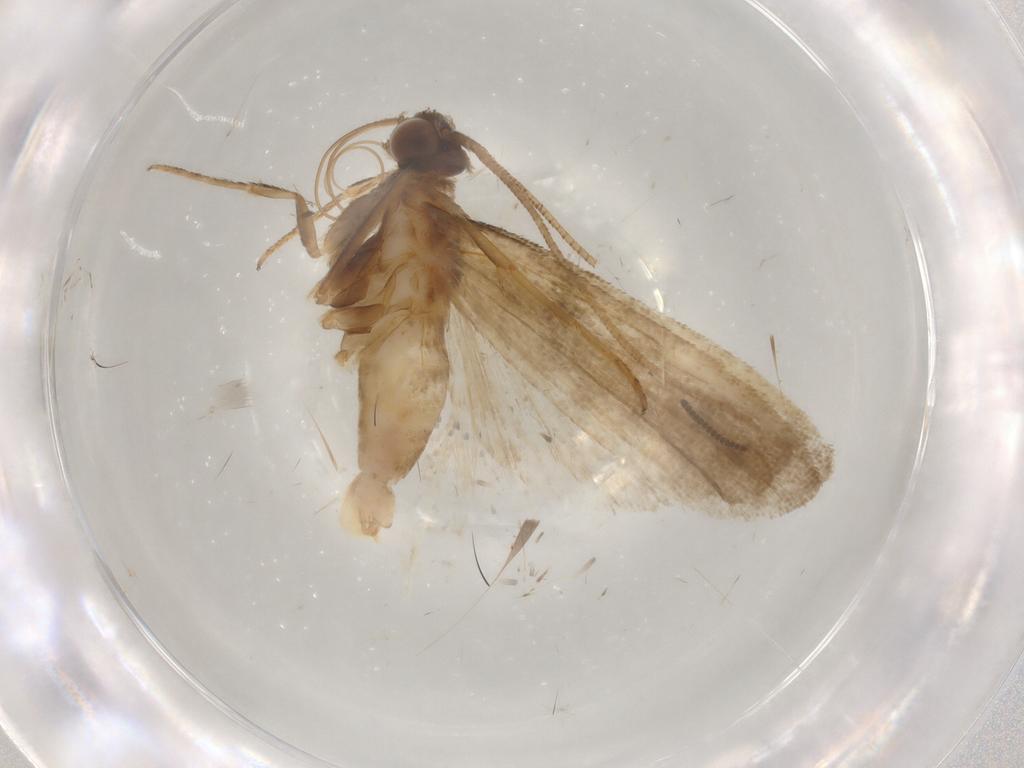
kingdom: Animalia
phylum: Arthropoda
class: Insecta
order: Lepidoptera
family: Noctuidae
